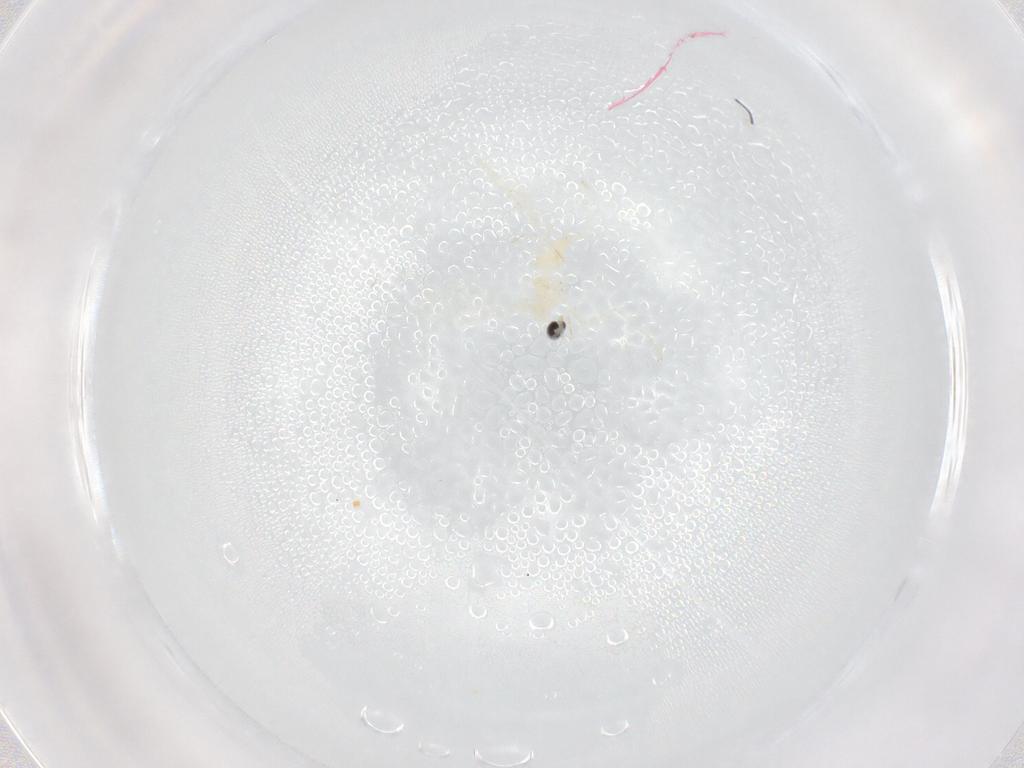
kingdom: Animalia
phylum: Arthropoda
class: Insecta
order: Diptera
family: Cecidomyiidae
